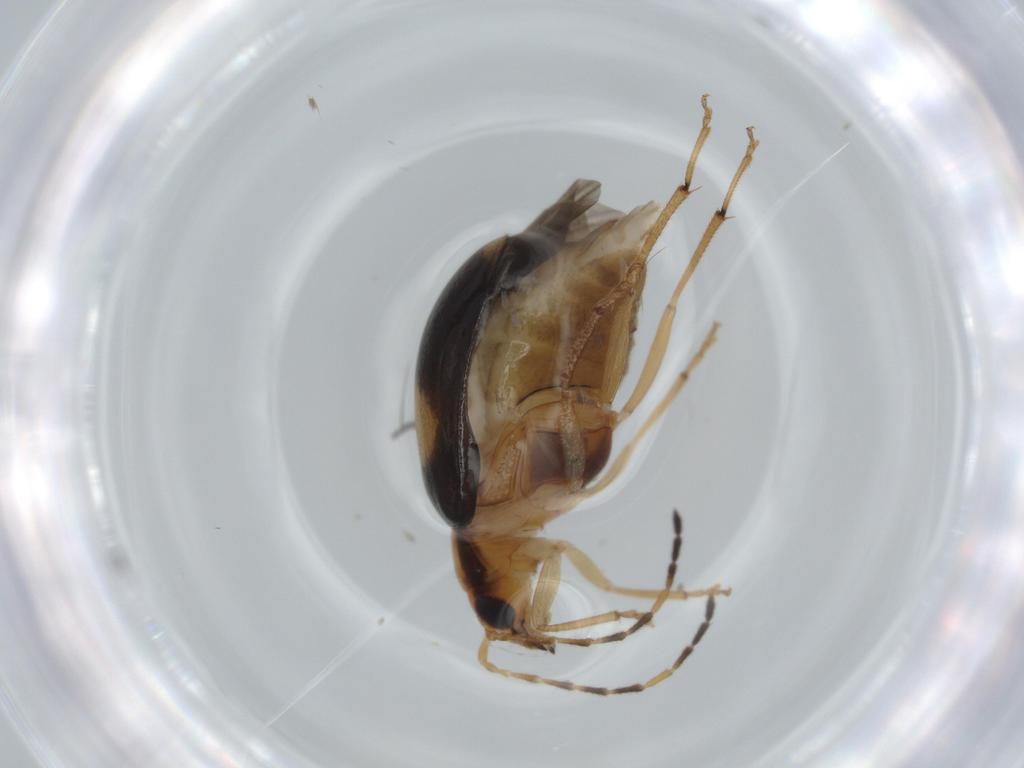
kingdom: Animalia
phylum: Arthropoda
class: Insecta
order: Coleoptera
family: Chrysomelidae
